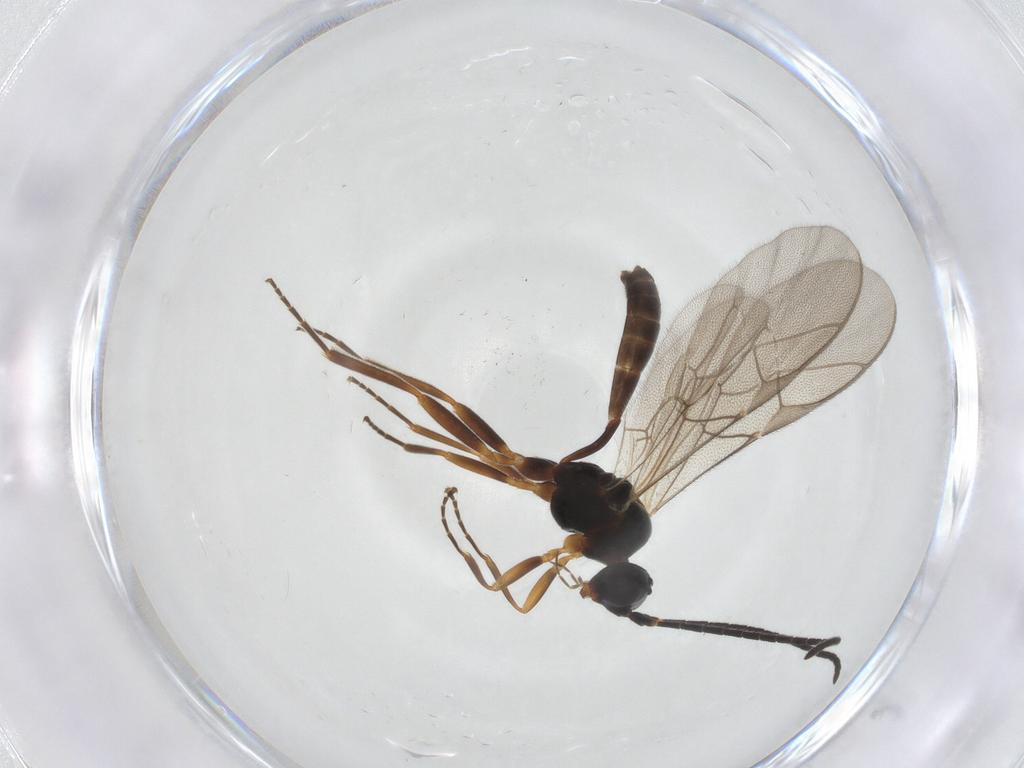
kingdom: Animalia
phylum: Arthropoda
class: Insecta
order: Hymenoptera
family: Ichneumonidae
